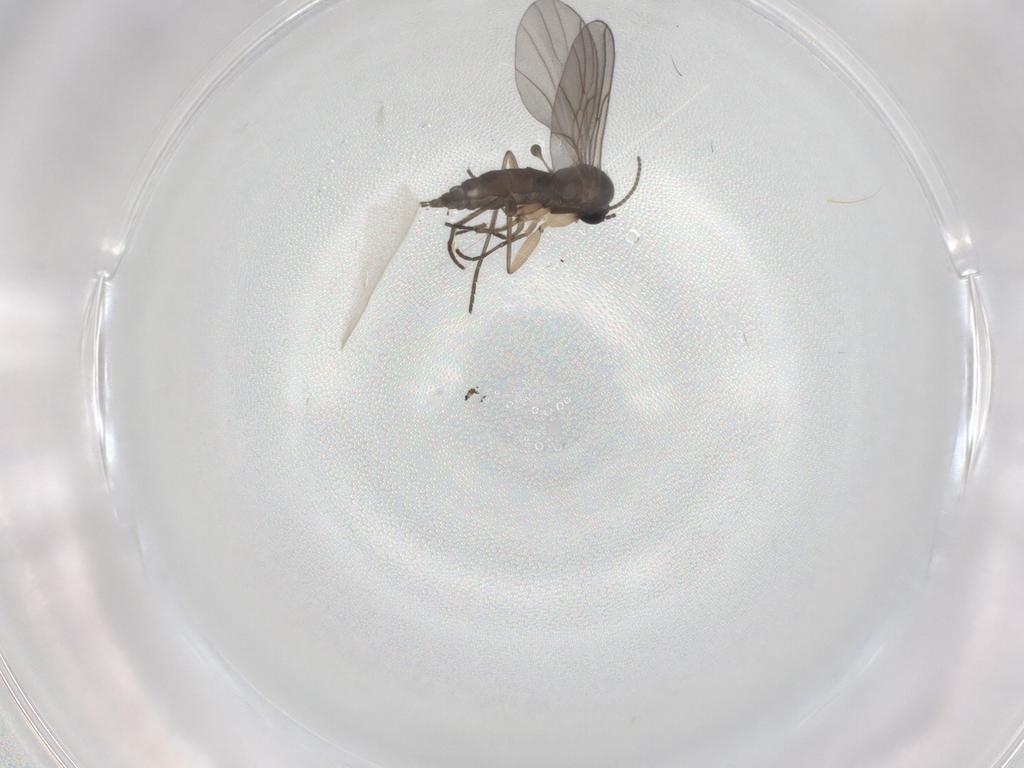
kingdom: Animalia
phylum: Arthropoda
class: Insecta
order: Diptera
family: Sciaridae
